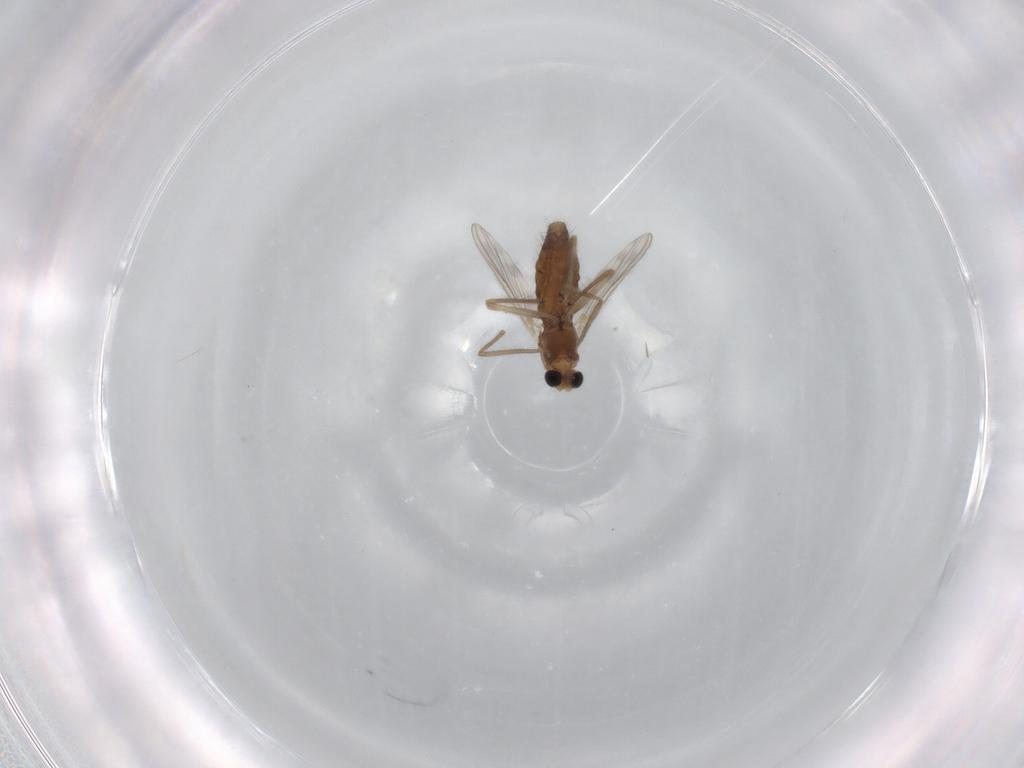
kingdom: Animalia
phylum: Arthropoda
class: Insecta
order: Diptera
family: Chironomidae
